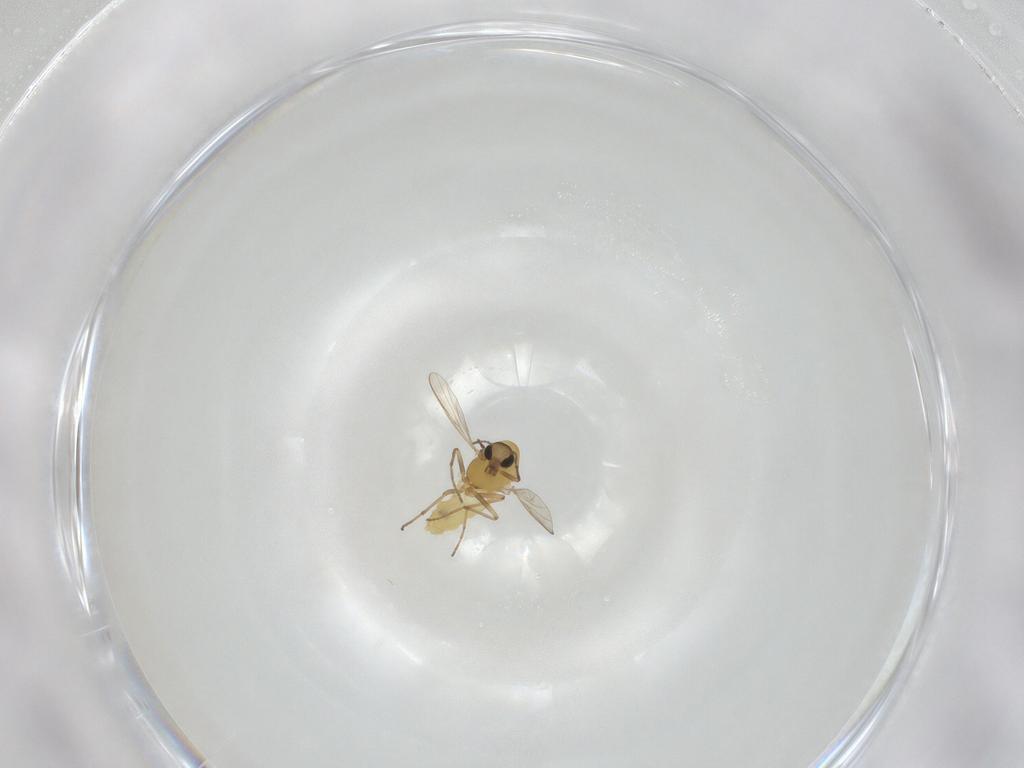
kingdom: Animalia
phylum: Arthropoda
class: Insecta
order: Diptera
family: Chironomidae
